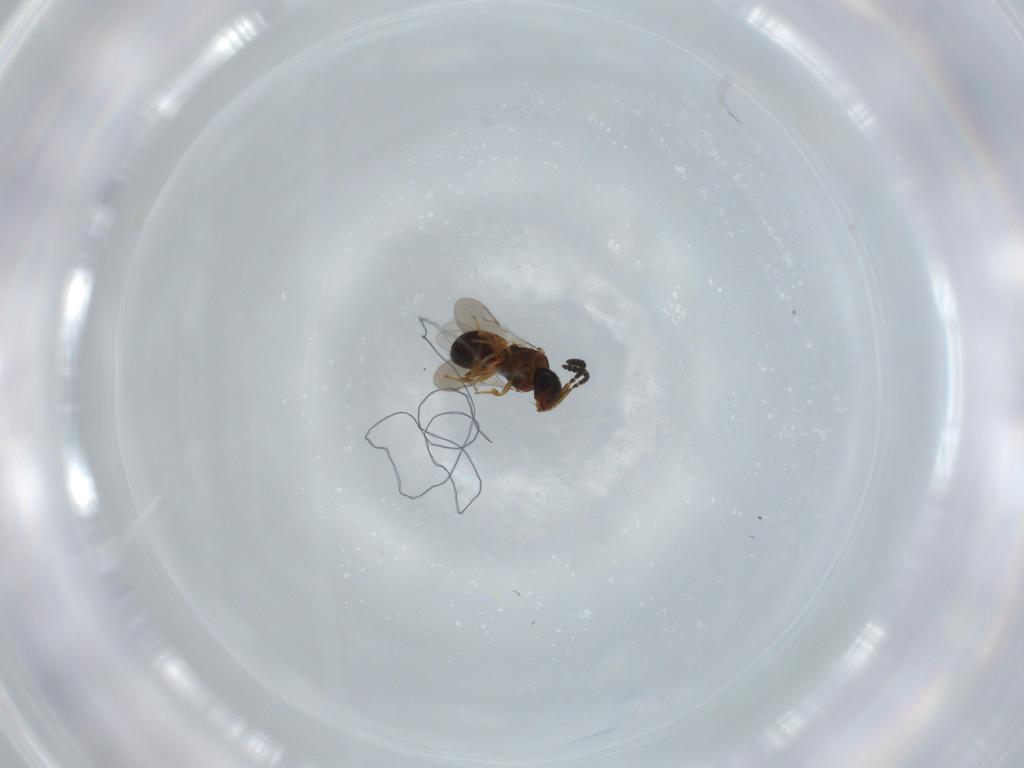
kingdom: Animalia
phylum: Arthropoda
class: Insecta
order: Hymenoptera
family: Scelionidae
